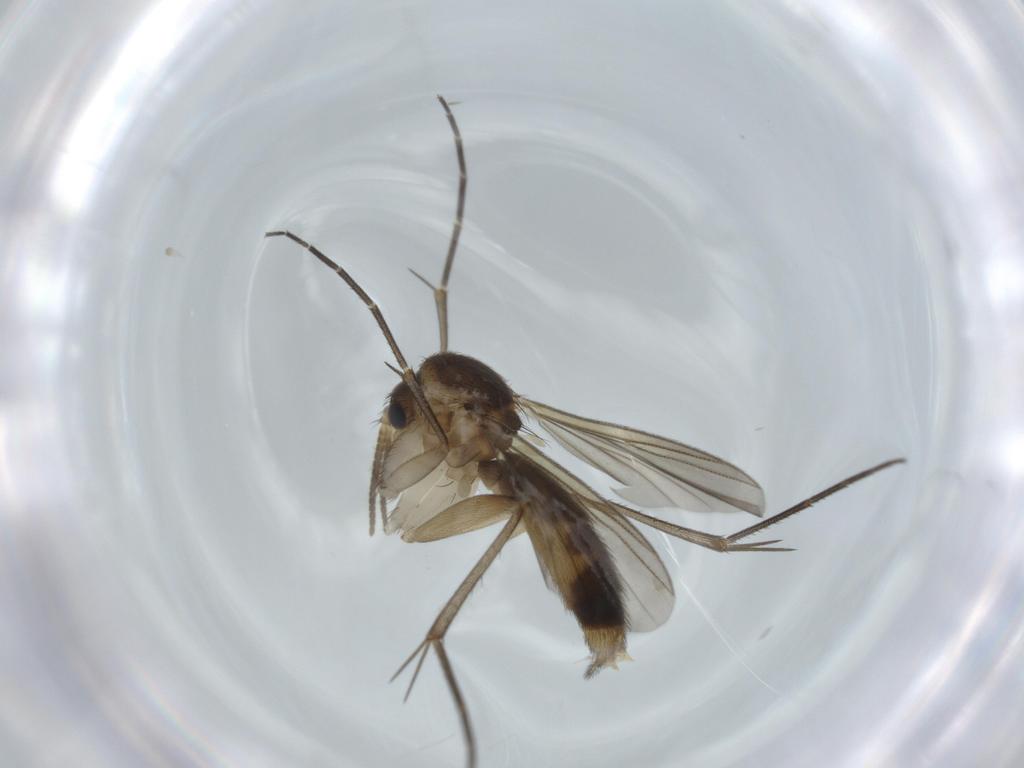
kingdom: Animalia
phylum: Arthropoda
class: Insecta
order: Diptera
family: Mycetophilidae
